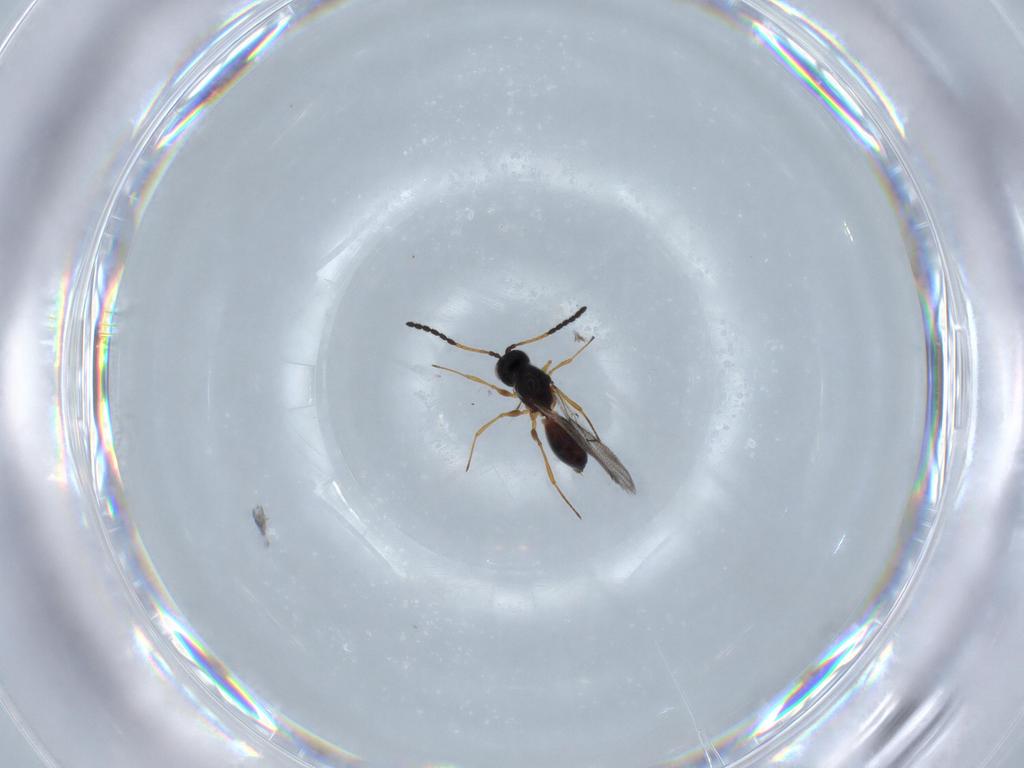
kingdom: Animalia
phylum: Arthropoda
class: Insecta
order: Hymenoptera
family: Figitidae
